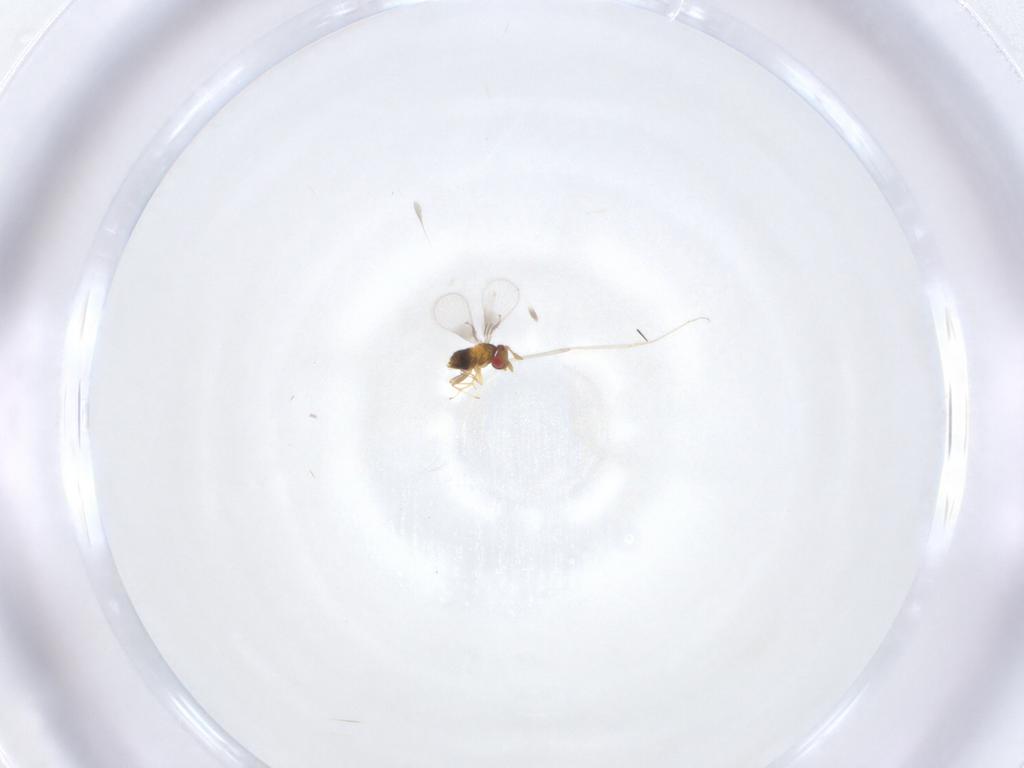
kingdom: Animalia
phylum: Arthropoda
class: Insecta
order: Hymenoptera
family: Trichogrammatidae
